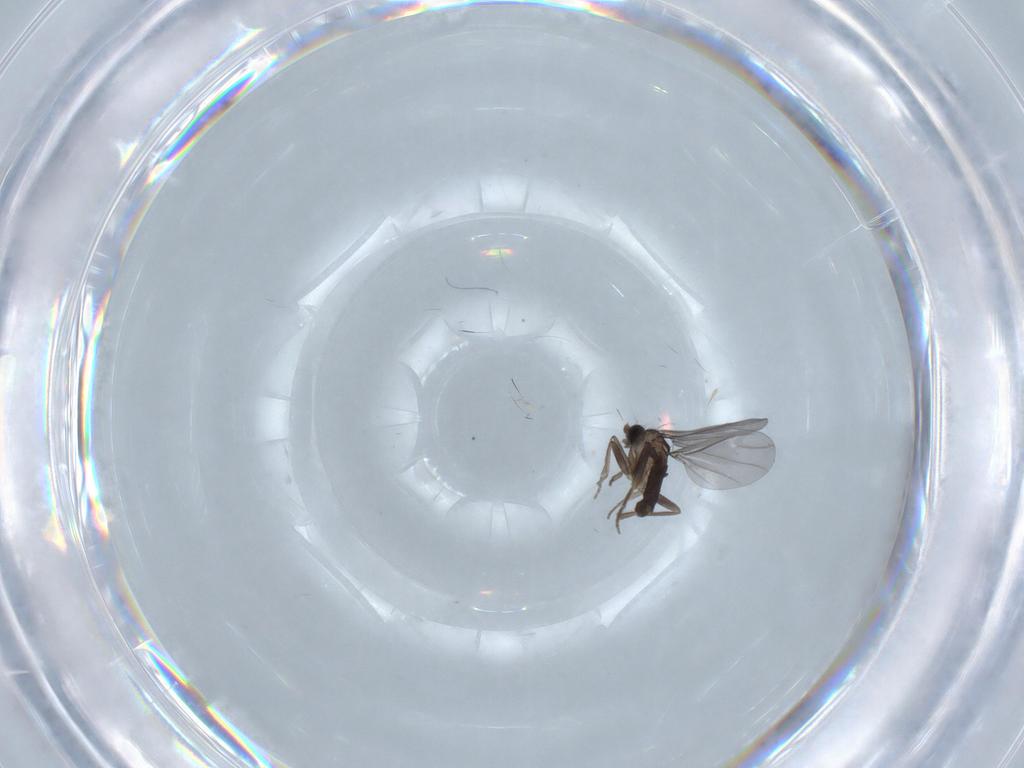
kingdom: Animalia
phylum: Arthropoda
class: Insecta
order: Diptera
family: Phoridae
